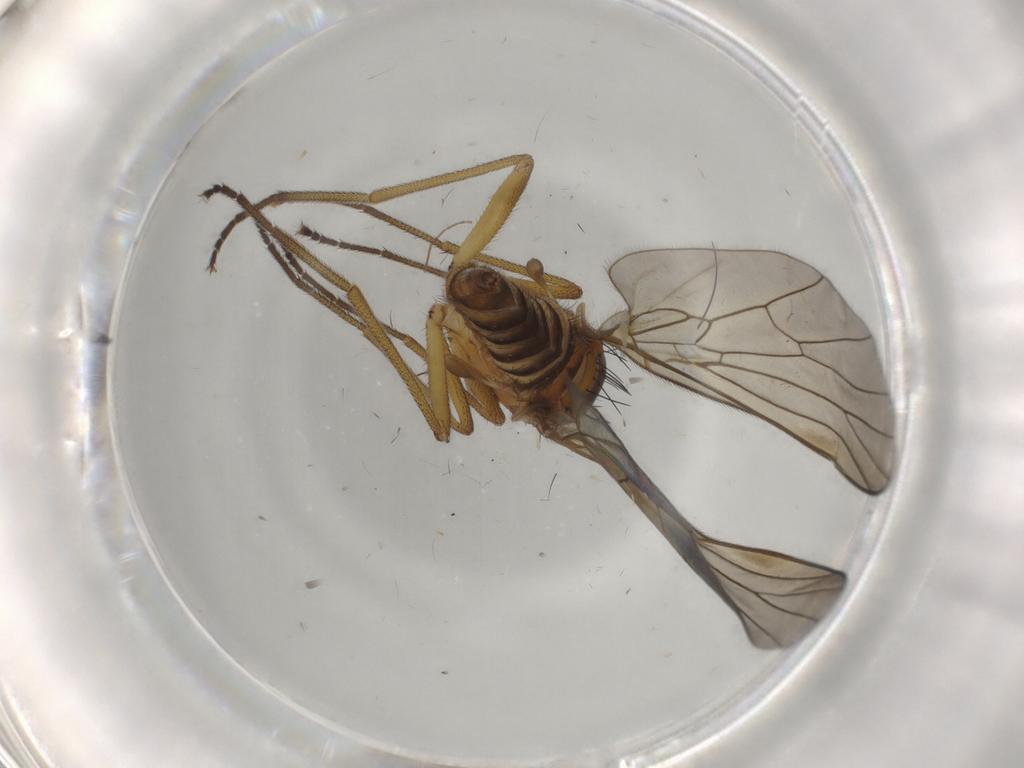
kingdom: Animalia
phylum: Arthropoda
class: Insecta
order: Diptera
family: Brachystomatidae
